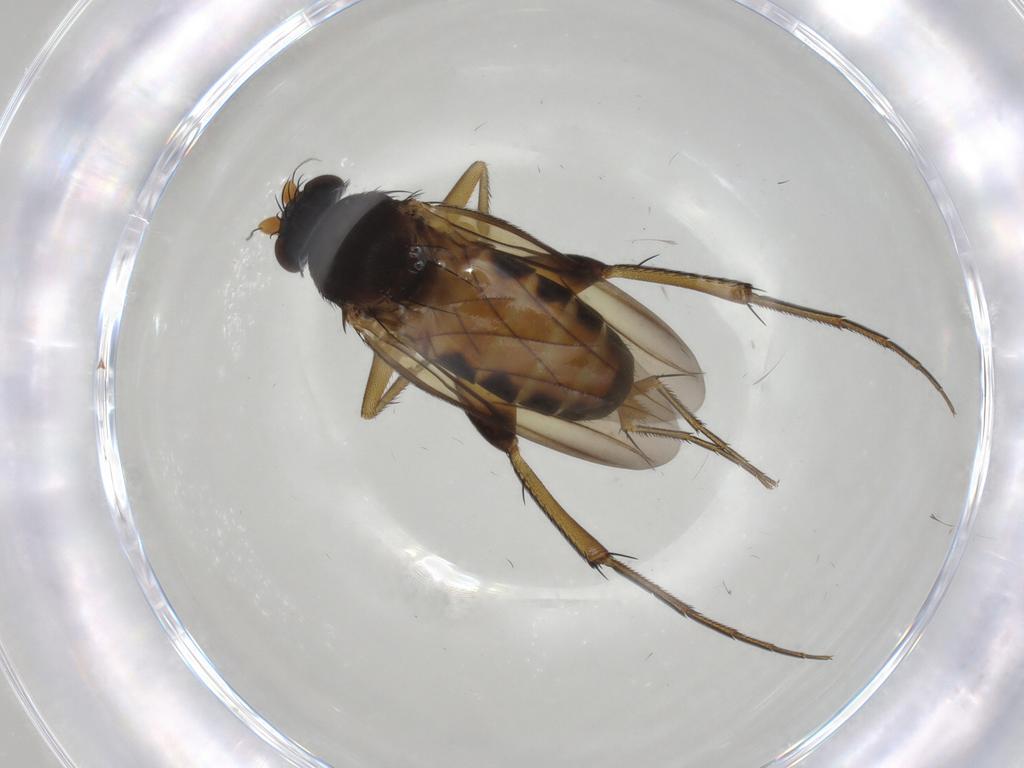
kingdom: Animalia
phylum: Arthropoda
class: Insecta
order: Diptera
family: Phoridae
